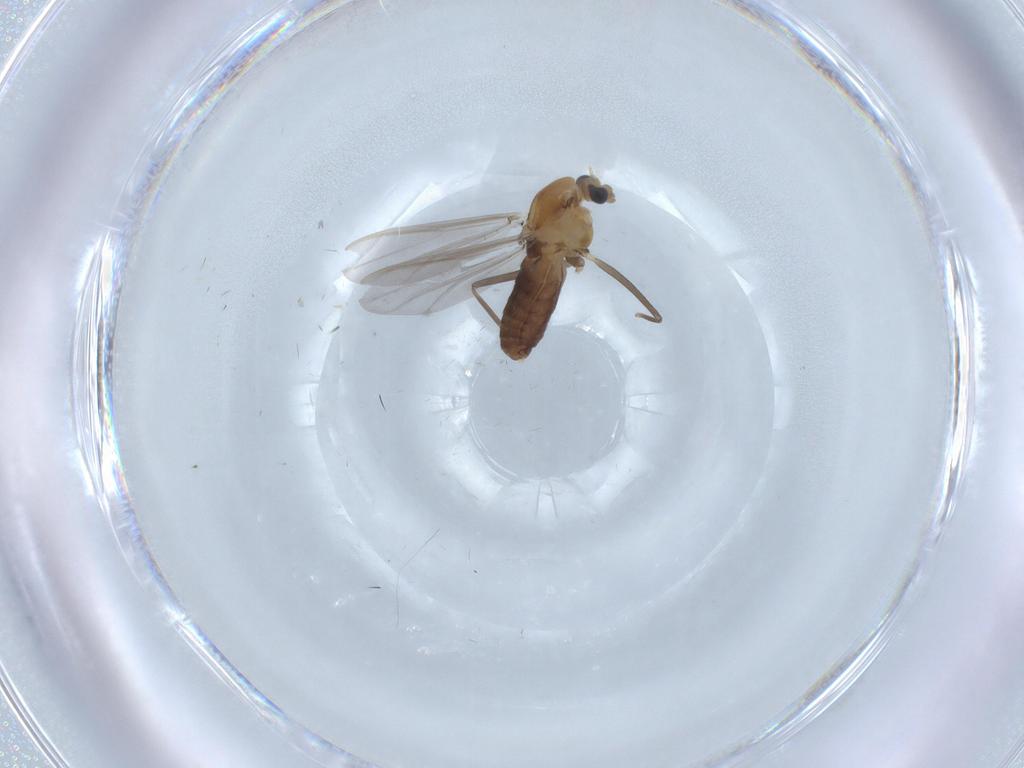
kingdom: Animalia
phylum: Arthropoda
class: Insecta
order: Diptera
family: Chironomidae
